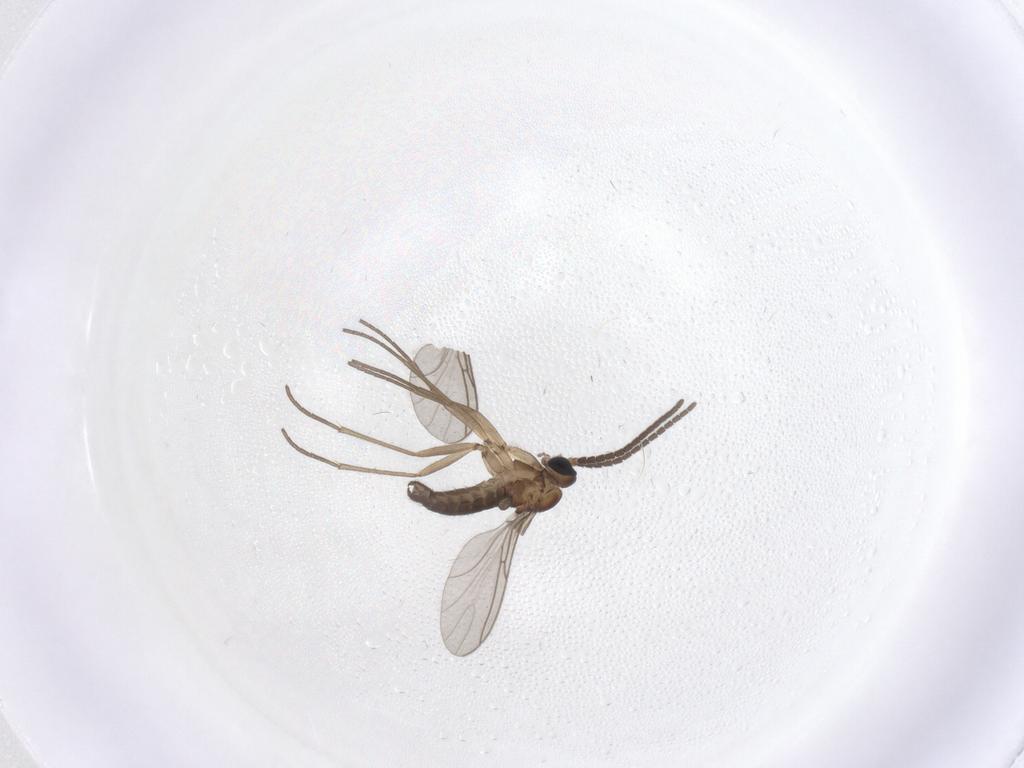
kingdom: Animalia
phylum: Arthropoda
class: Insecta
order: Diptera
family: Sciaridae
